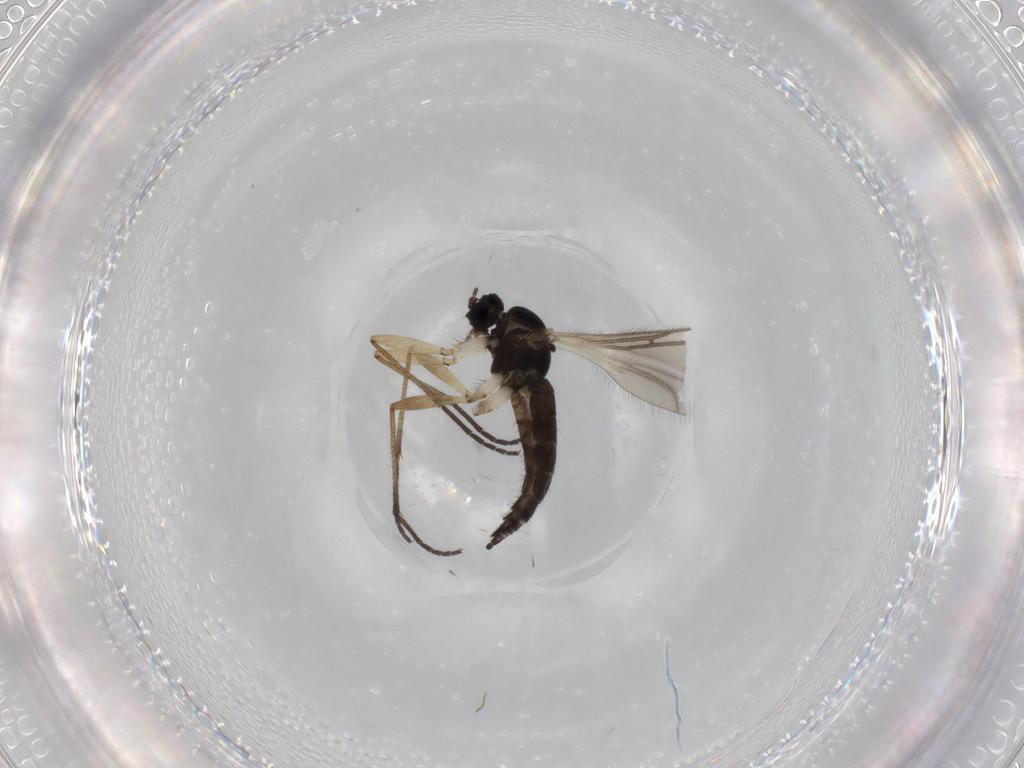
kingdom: Animalia
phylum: Arthropoda
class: Insecta
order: Diptera
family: Sciaridae
